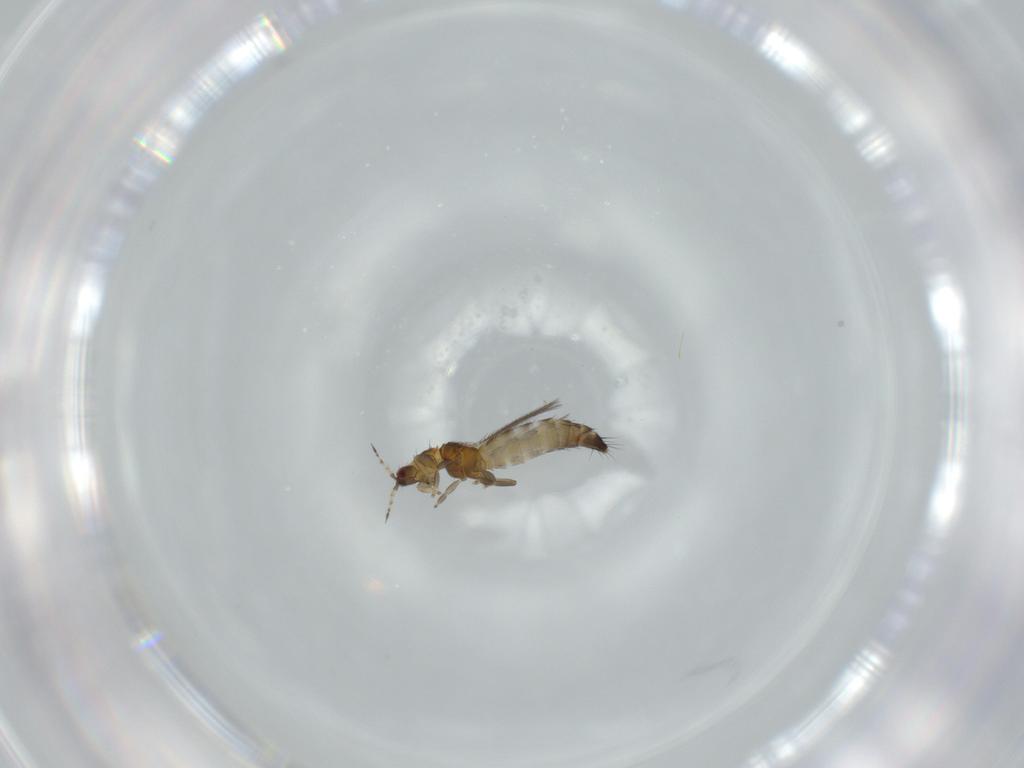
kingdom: Animalia
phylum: Arthropoda
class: Insecta
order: Thysanoptera
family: Thripidae
